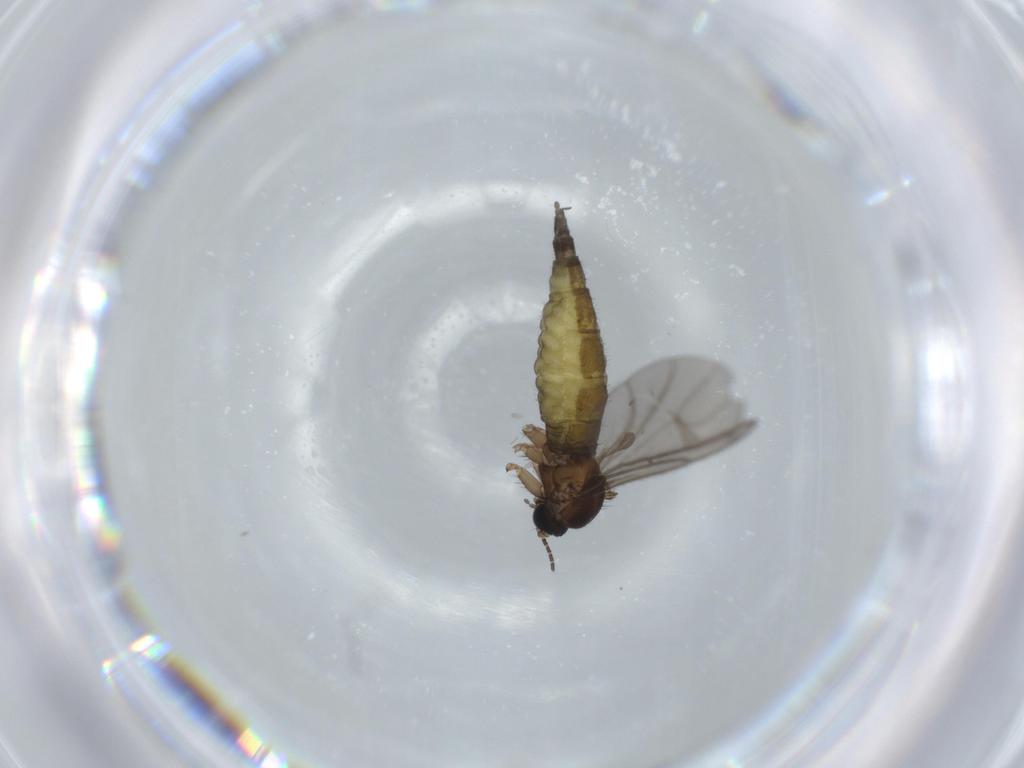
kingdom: Animalia
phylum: Arthropoda
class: Insecta
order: Diptera
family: Sciaridae
